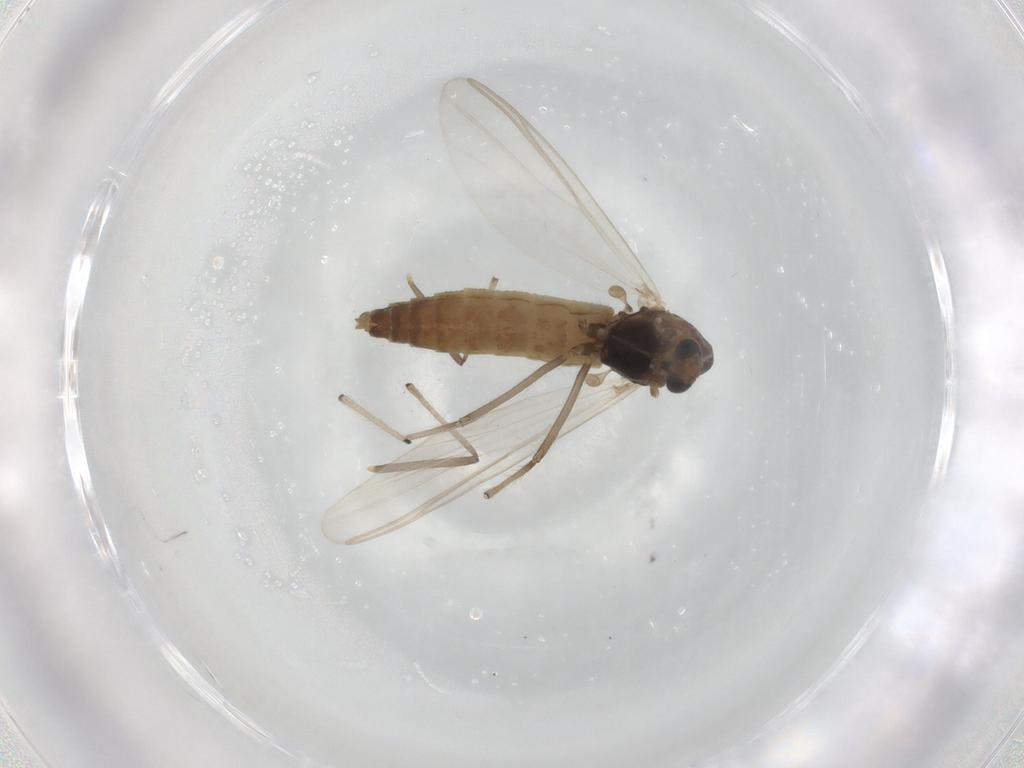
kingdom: Animalia
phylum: Arthropoda
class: Insecta
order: Diptera
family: Chironomidae
